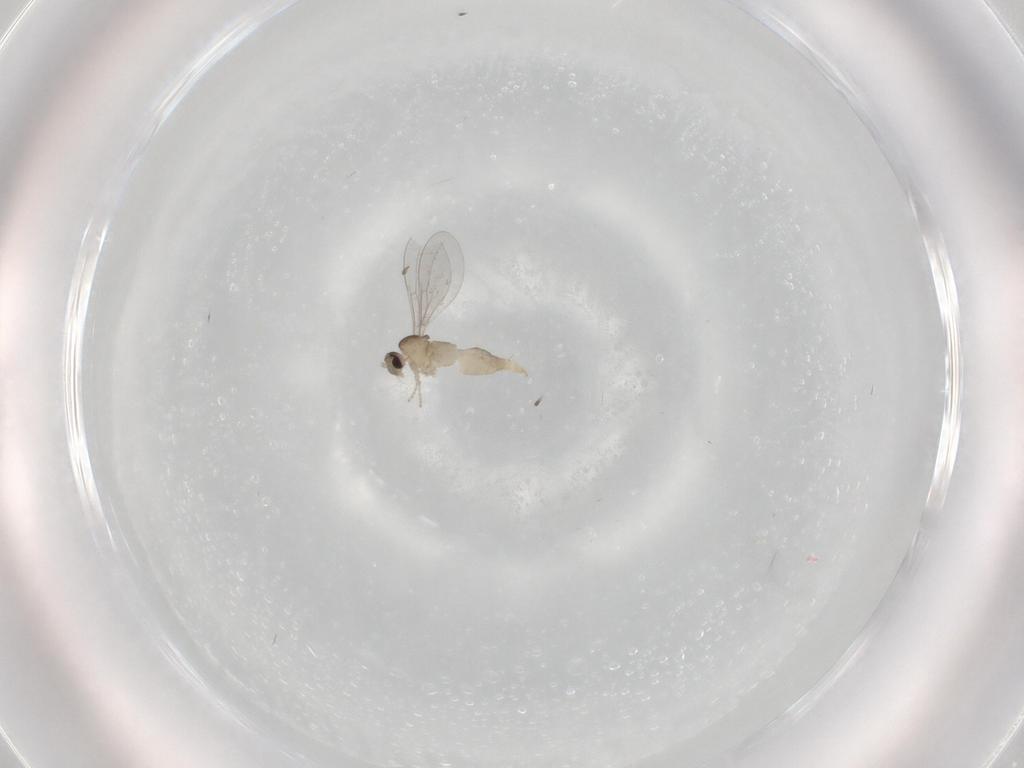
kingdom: Animalia
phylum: Arthropoda
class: Insecta
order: Diptera
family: Cecidomyiidae
